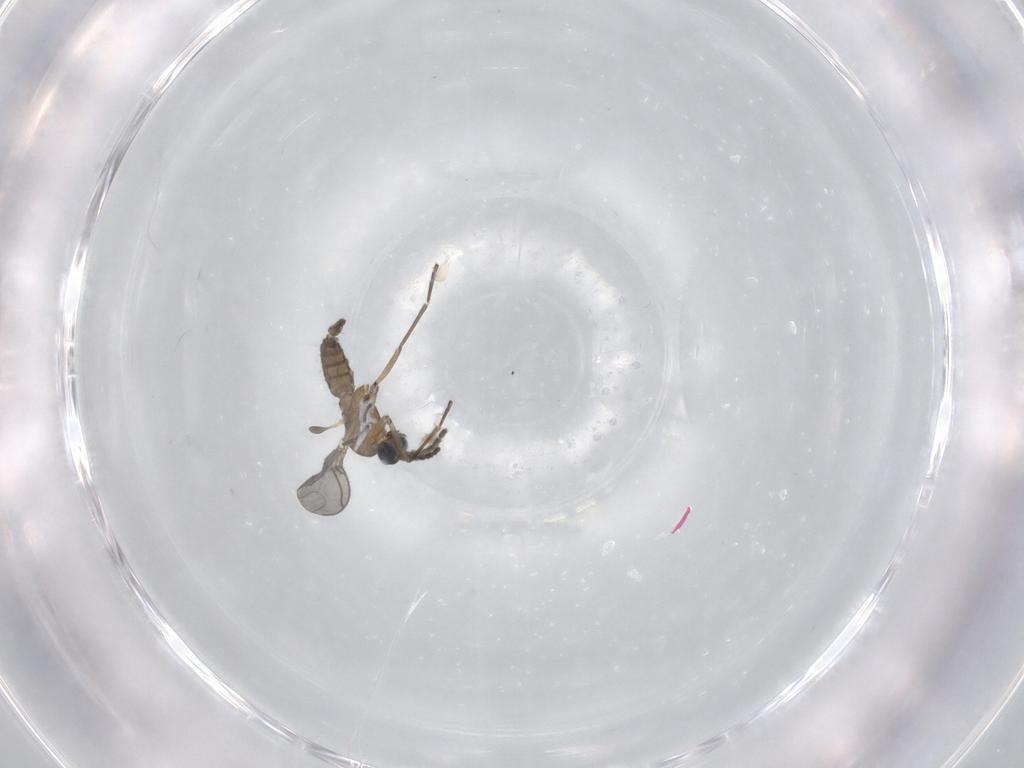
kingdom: Animalia
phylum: Arthropoda
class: Insecta
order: Diptera
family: Sciaridae
